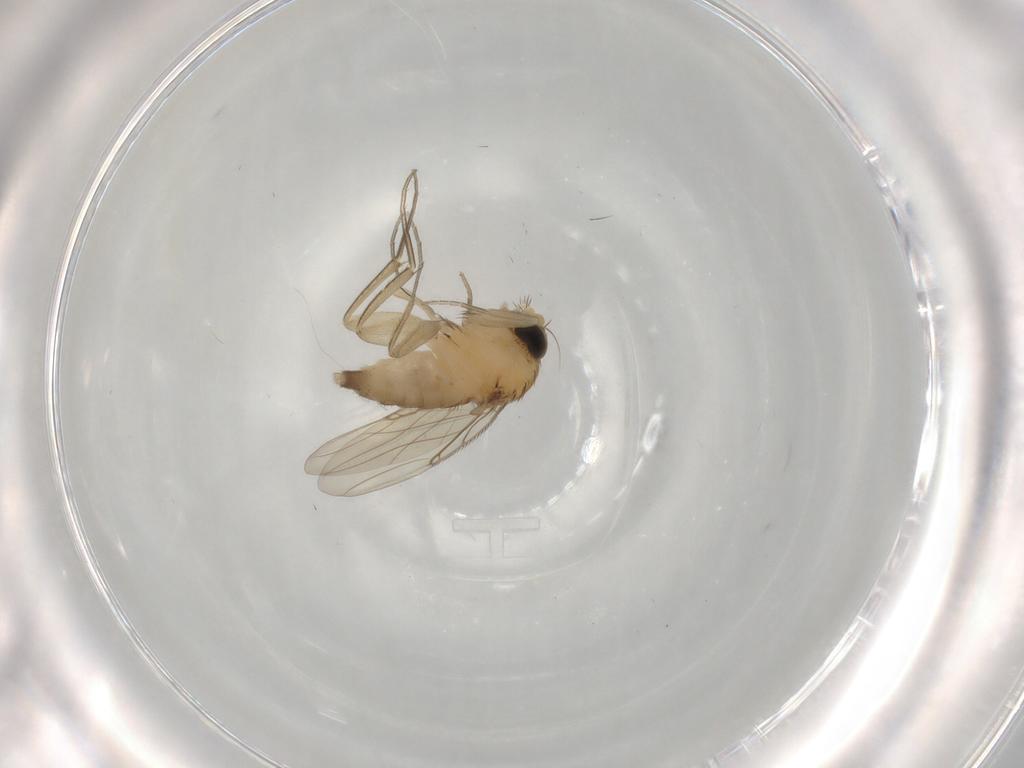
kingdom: Animalia
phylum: Arthropoda
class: Insecta
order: Diptera
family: Phoridae
